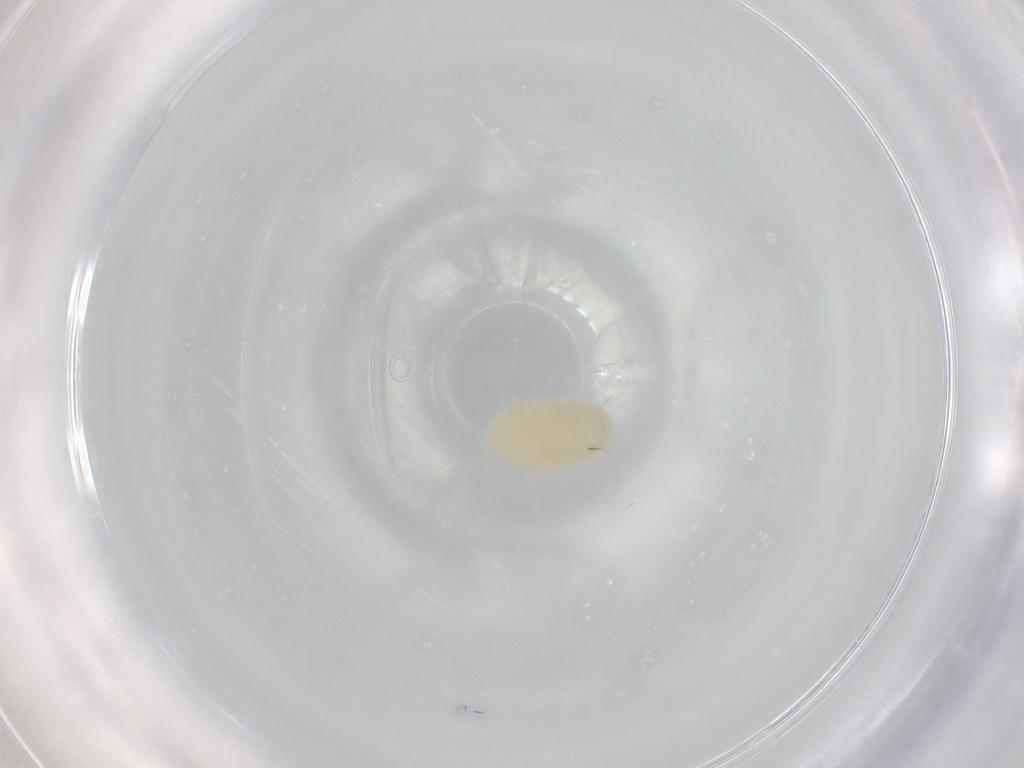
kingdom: Animalia
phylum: Arthropoda
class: Arachnida
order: Trombidiformes
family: Trombidiidae
